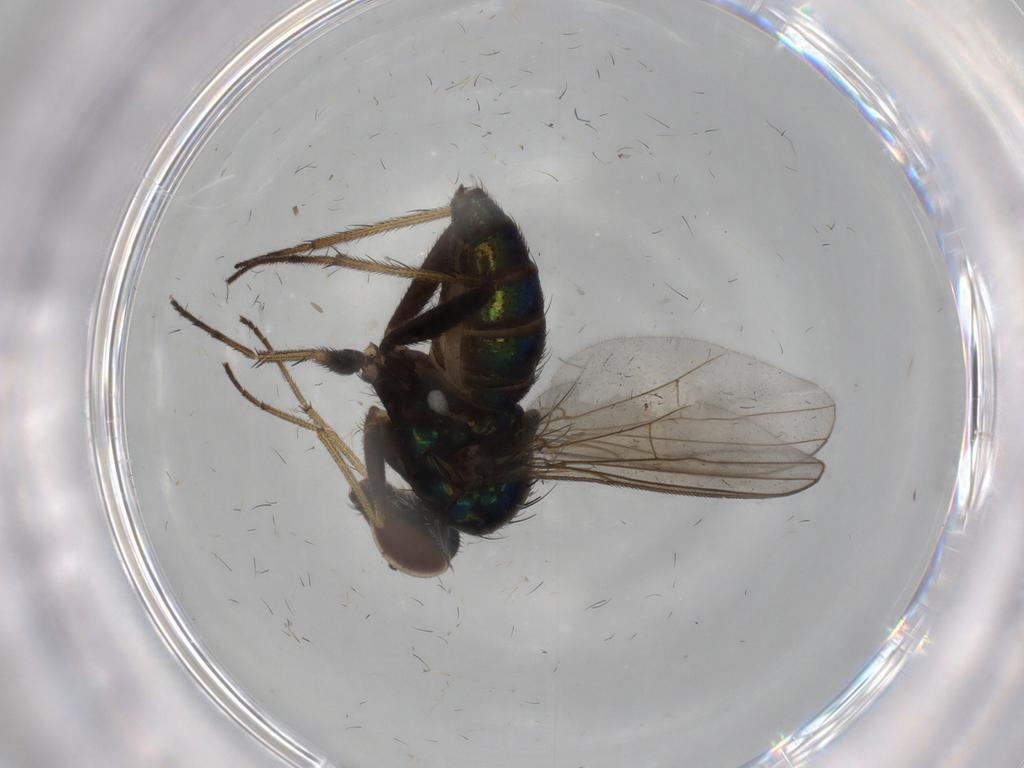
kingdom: Animalia
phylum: Arthropoda
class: Insecta
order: Diptera
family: Dolichopodidae
